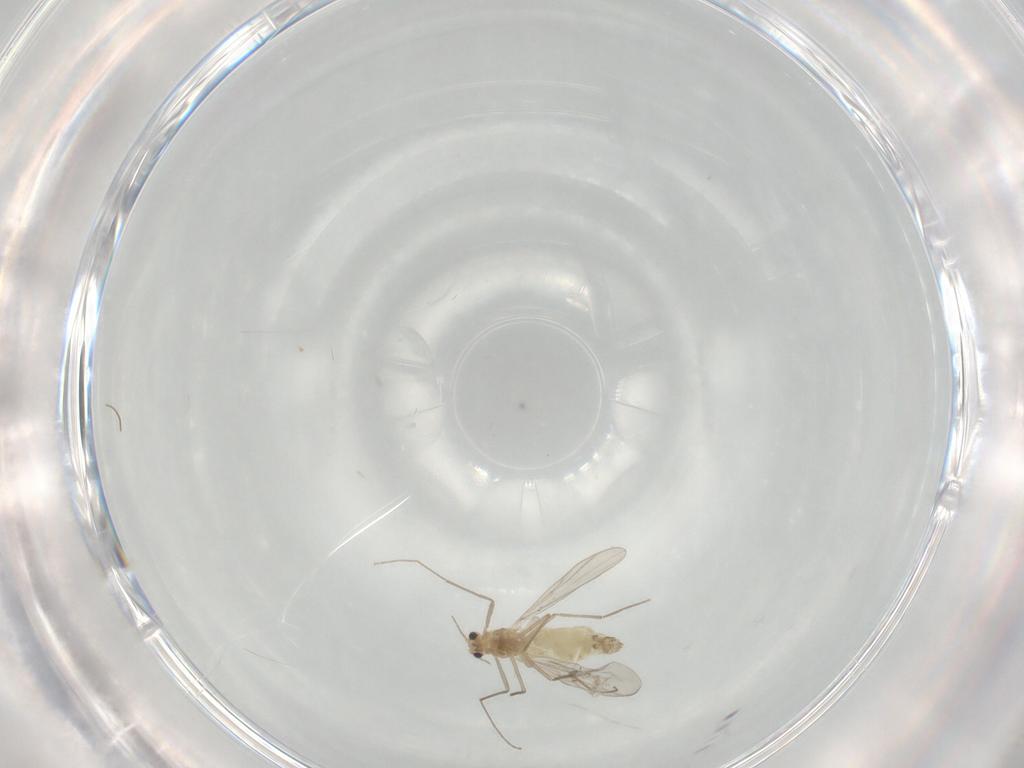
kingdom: Animalia
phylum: Arthropoda
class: Insecta
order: Diptera
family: Chironomidae
